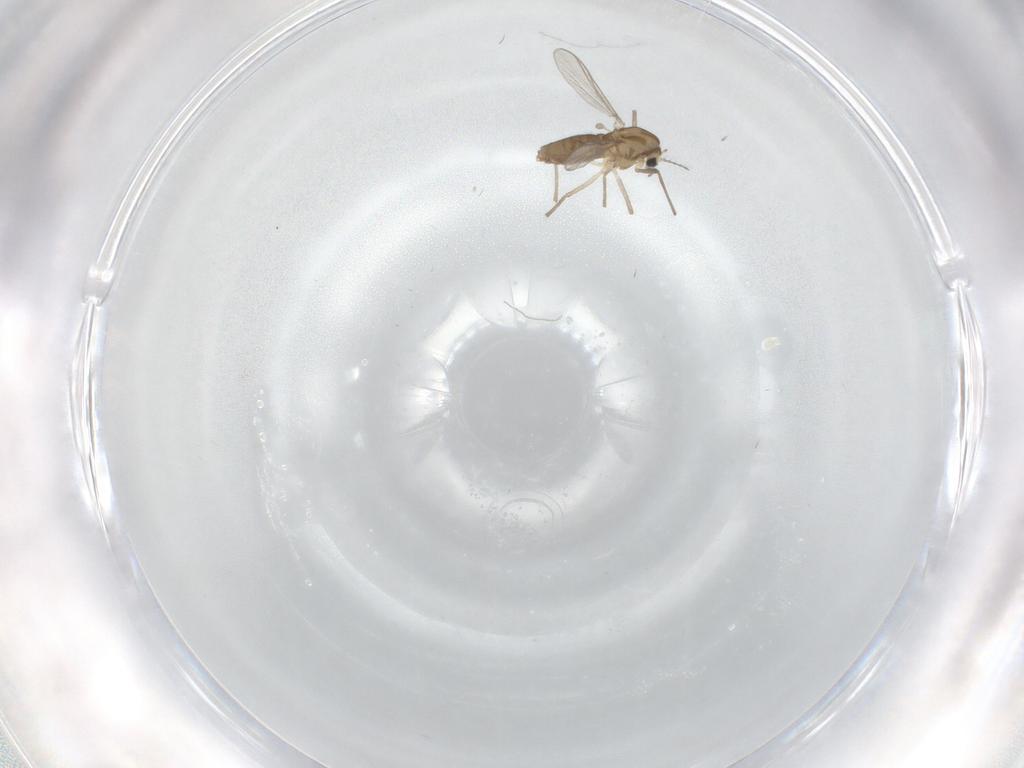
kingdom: Animalia
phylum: Arthropoda
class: Insecta
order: Diptera
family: Chironomidae
